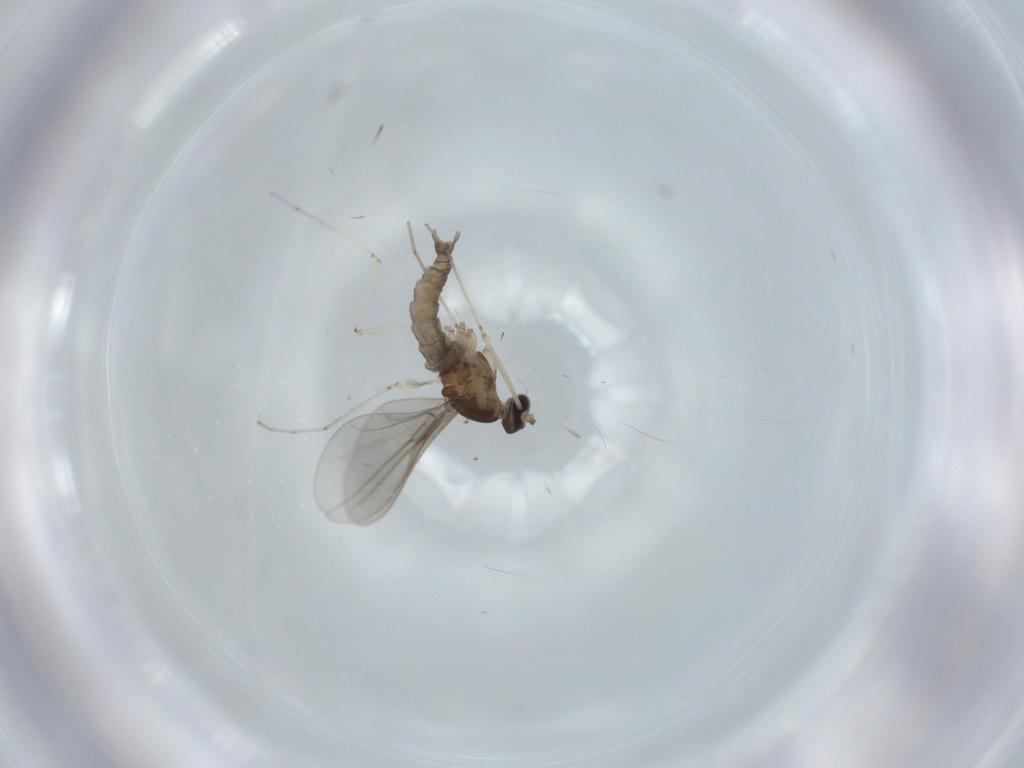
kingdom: Animalia
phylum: Arthropoda
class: Insecta
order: Diptera
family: Cecidomyiidae
